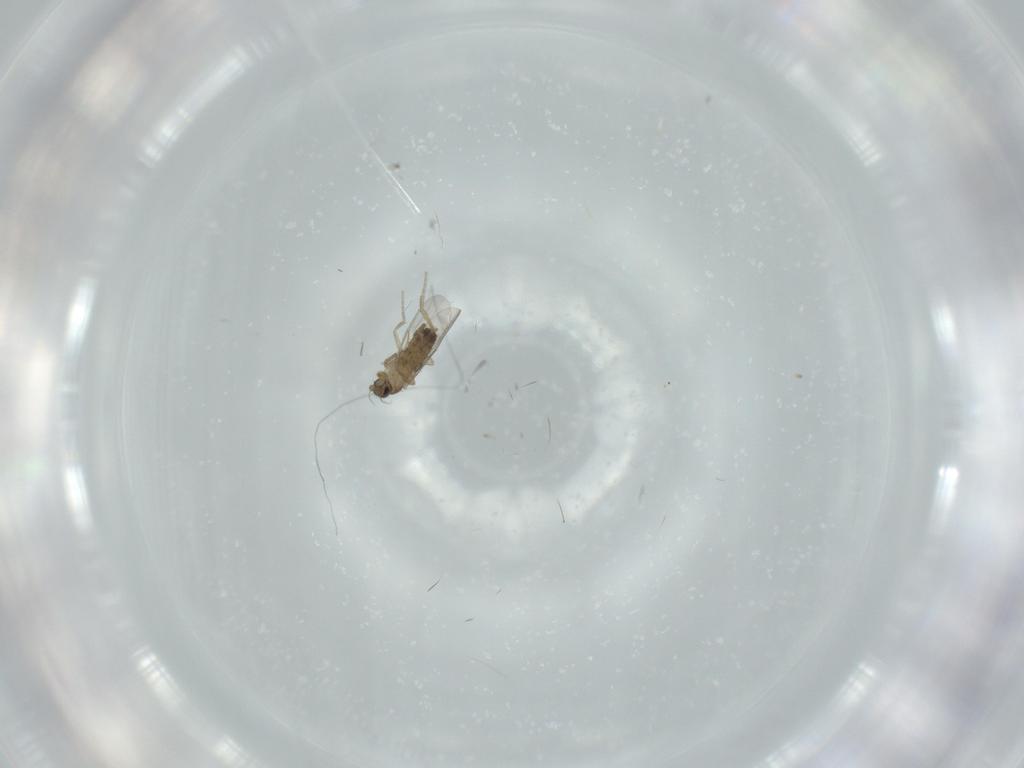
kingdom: Animalia
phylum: Arthropoda
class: Insecta
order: Diptera
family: Phoridae
